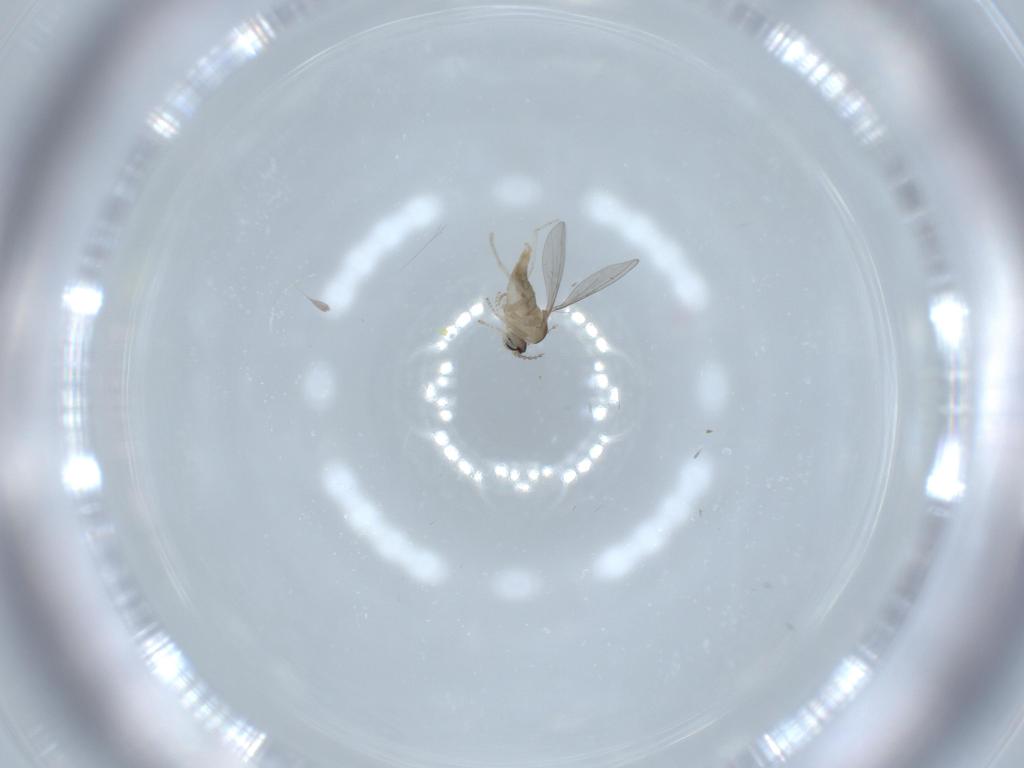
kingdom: Animalia
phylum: Arthropoda
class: Insecta
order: Diptera
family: Cecidomyiidae
